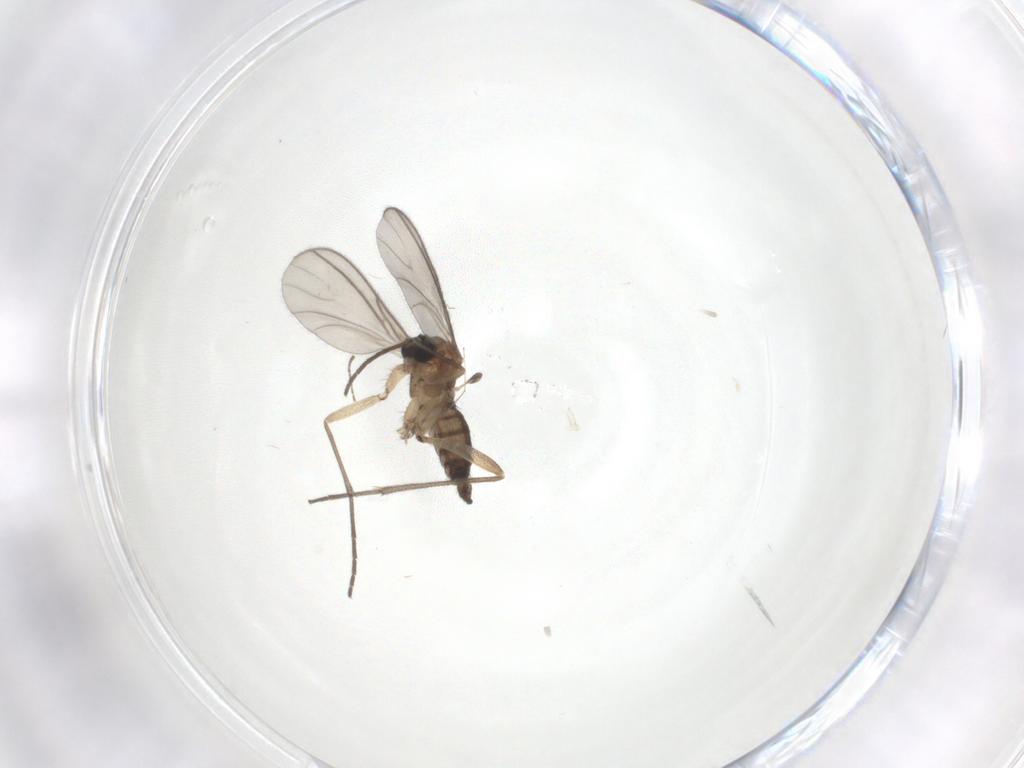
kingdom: Animalia
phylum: Arthropoda
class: Insecta
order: Diptera
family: Sciaridae
